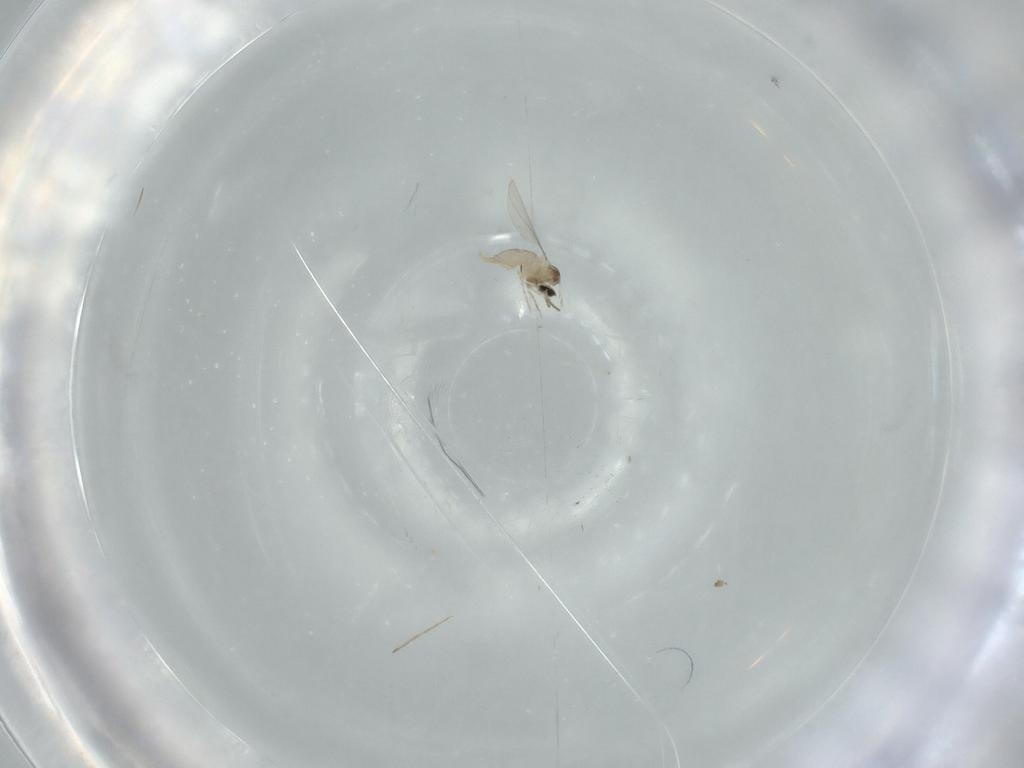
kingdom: Animalia
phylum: Arthropoda
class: Insecta
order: Diptera
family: Cecidomyiidae
